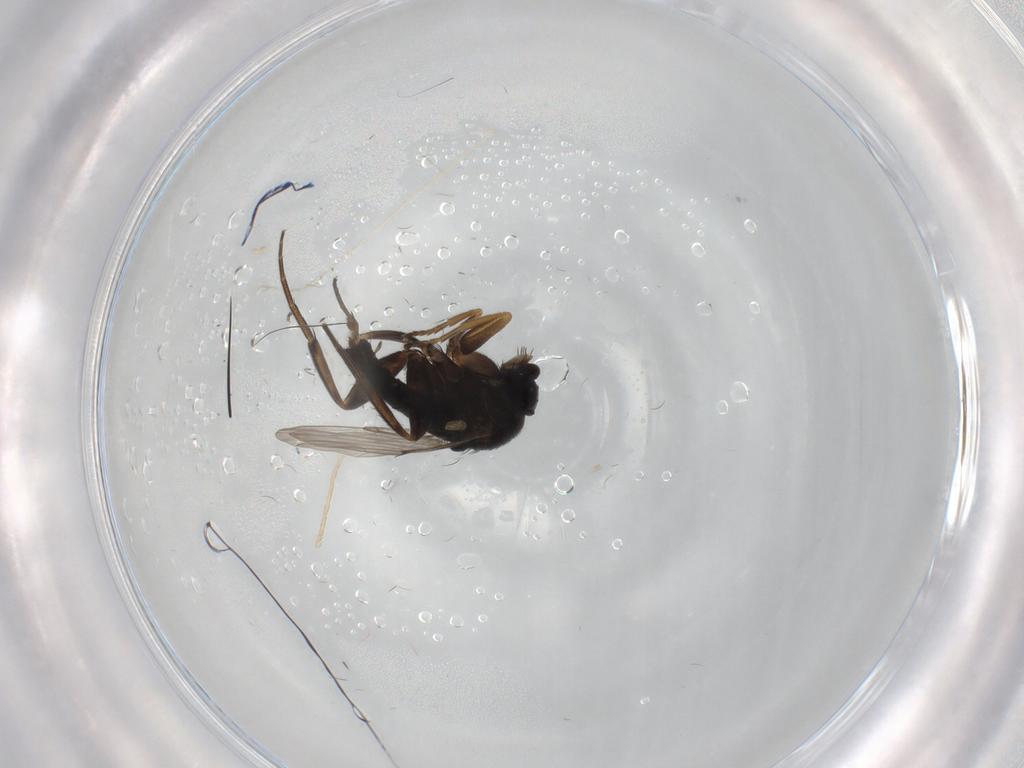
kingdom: Animalia
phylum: Arthropoda
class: Insecta
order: Diptera
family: Phoridae
